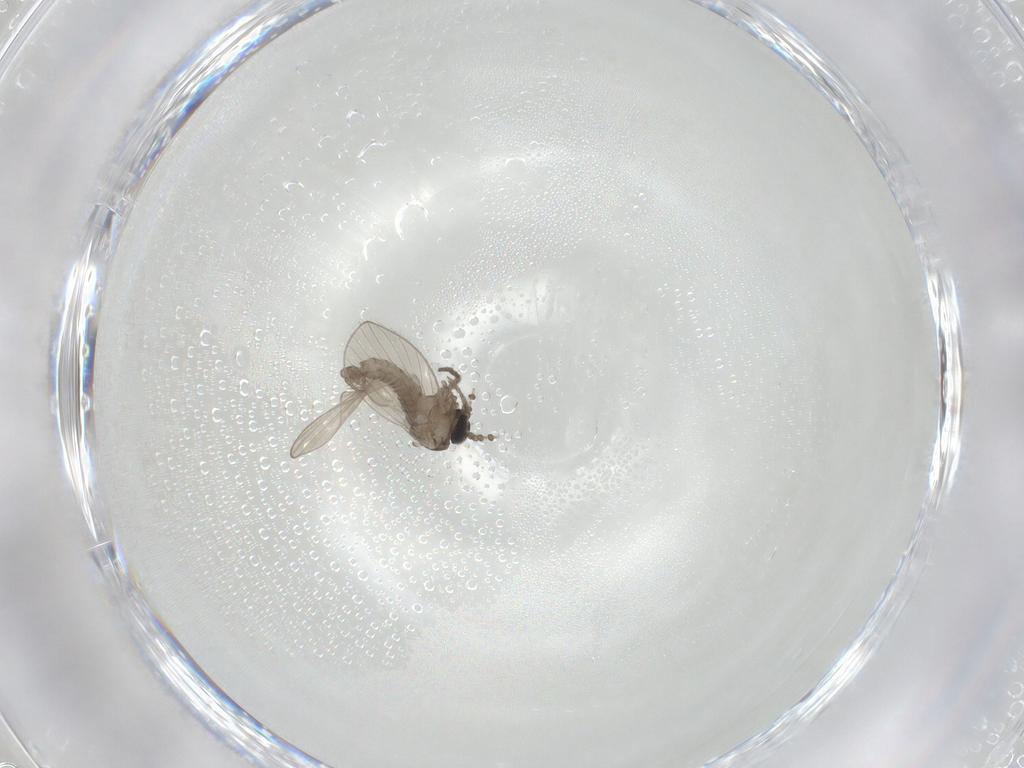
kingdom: Animalia
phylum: Arthropoda
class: Insecta
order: Diptera
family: Psychodidae
